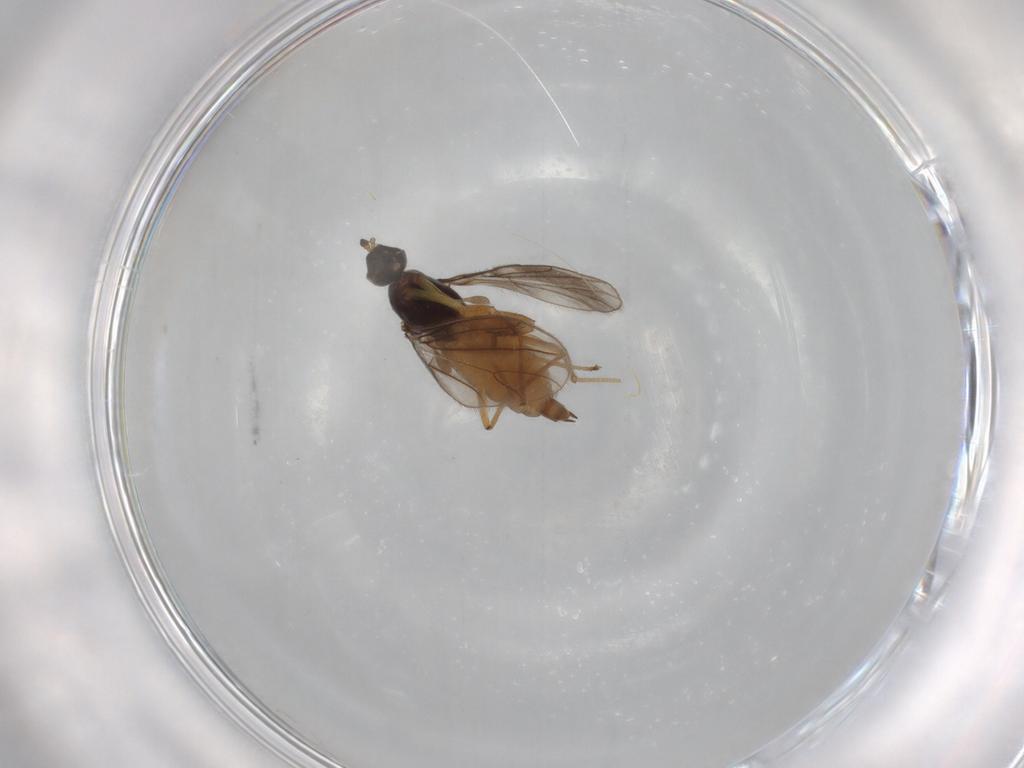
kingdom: Animalia
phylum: Arthropoda
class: Insecta
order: Diptera
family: Empididae
